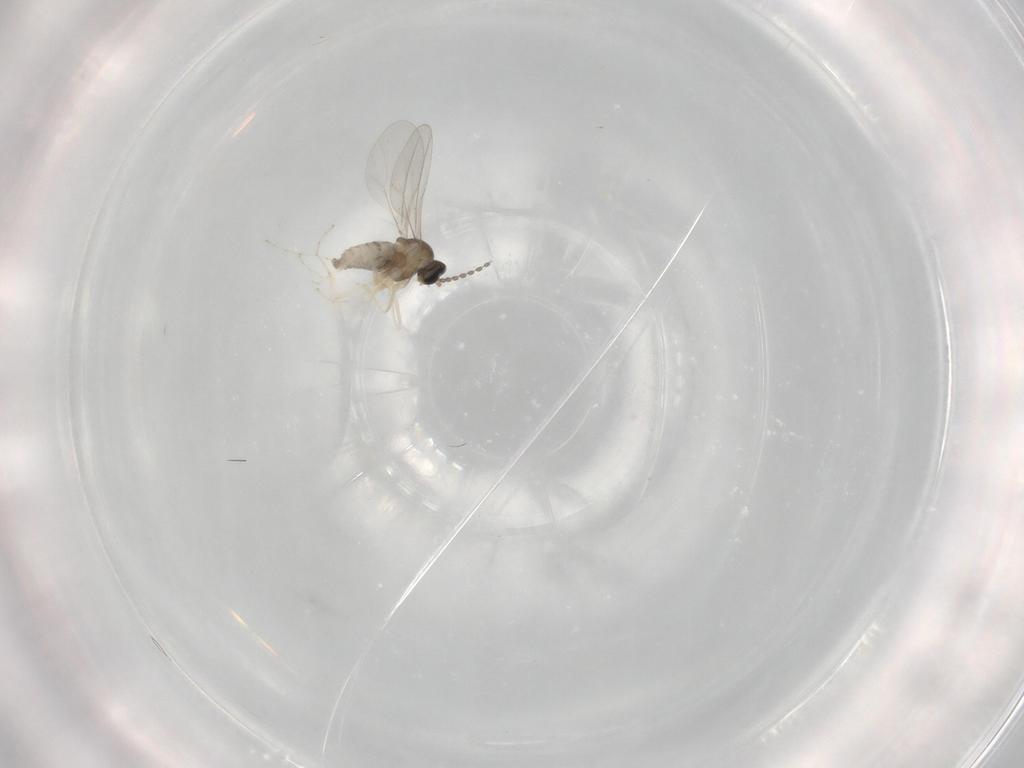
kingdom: Animalia
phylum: Arthropoda
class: Insecta
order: Diptera
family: Cecidomyiidae
